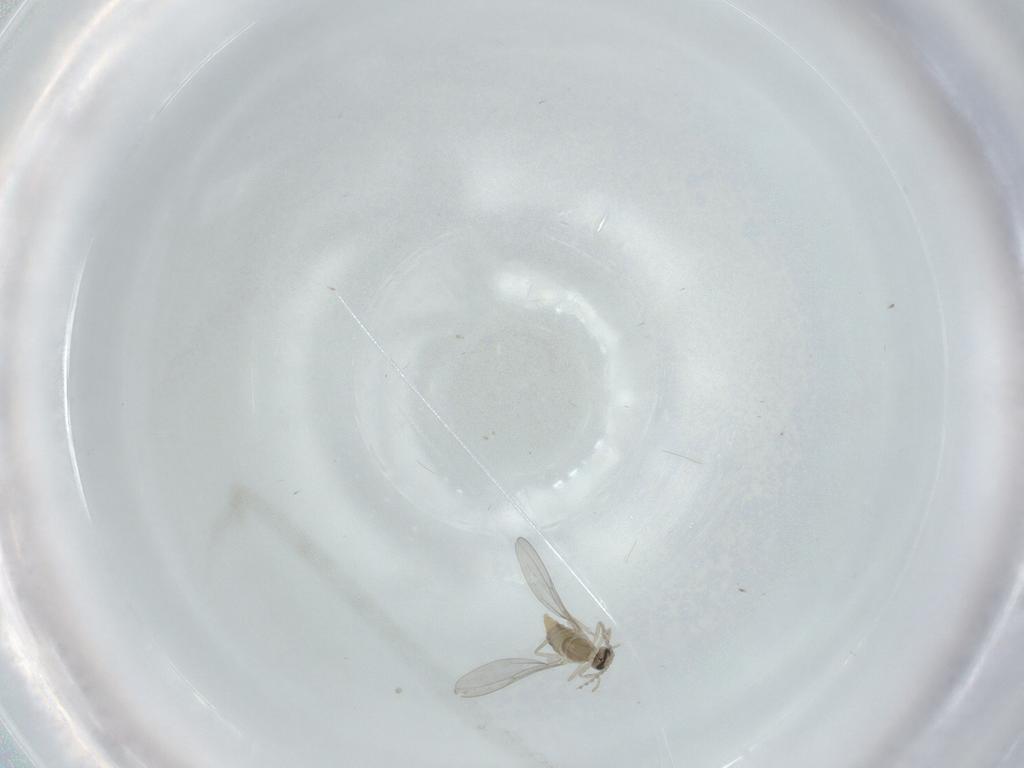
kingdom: Animalia
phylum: Arthropoda
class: Insecta
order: Diptera
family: Cecidomyiidae
